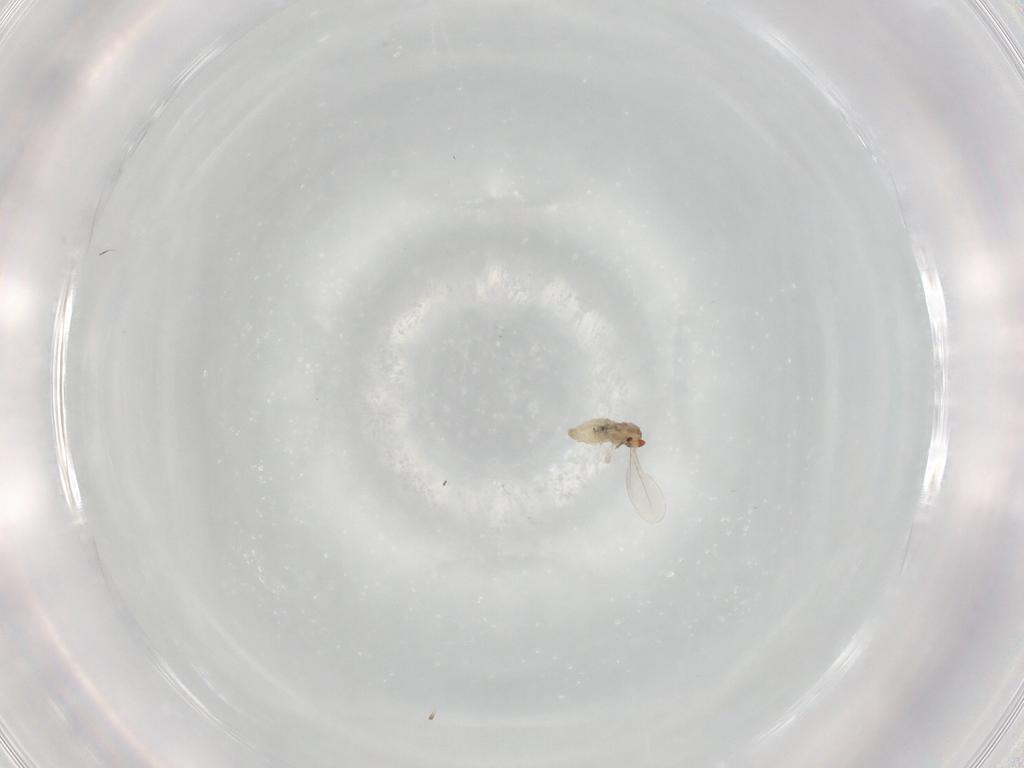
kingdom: Animalia
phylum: Arthropoda
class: Insecta
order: Diptera
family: Cecidomyiidae
